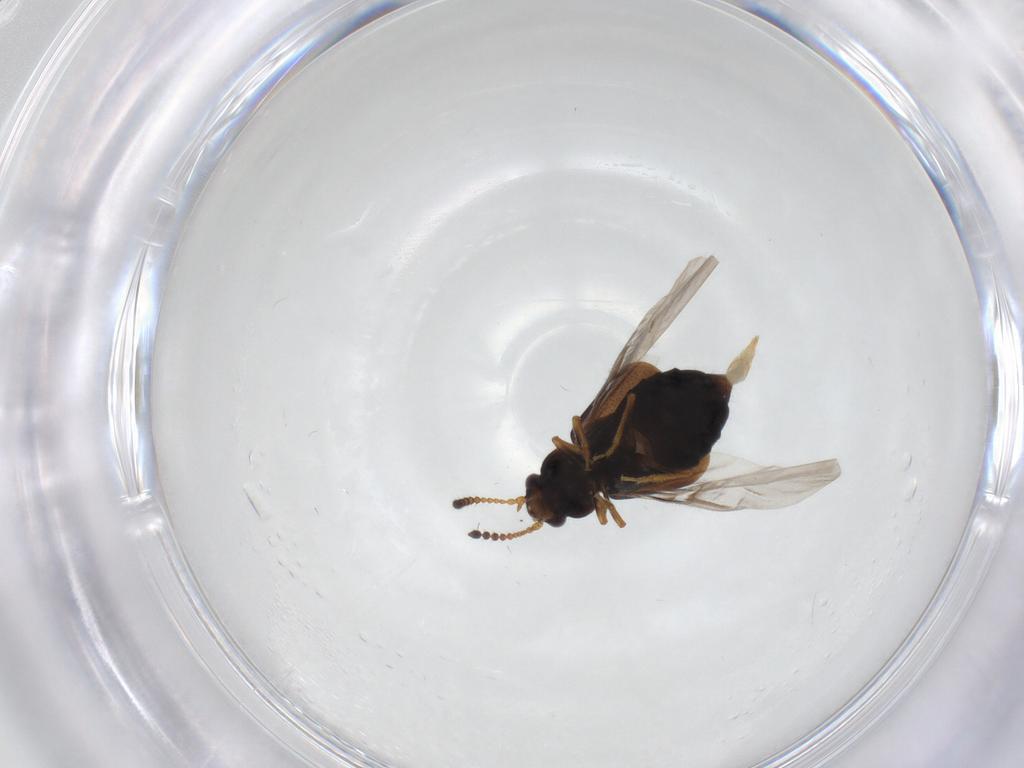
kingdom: Animalia
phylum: Arthropoda
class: Insecta
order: Coleoptera
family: Staphylinidae
